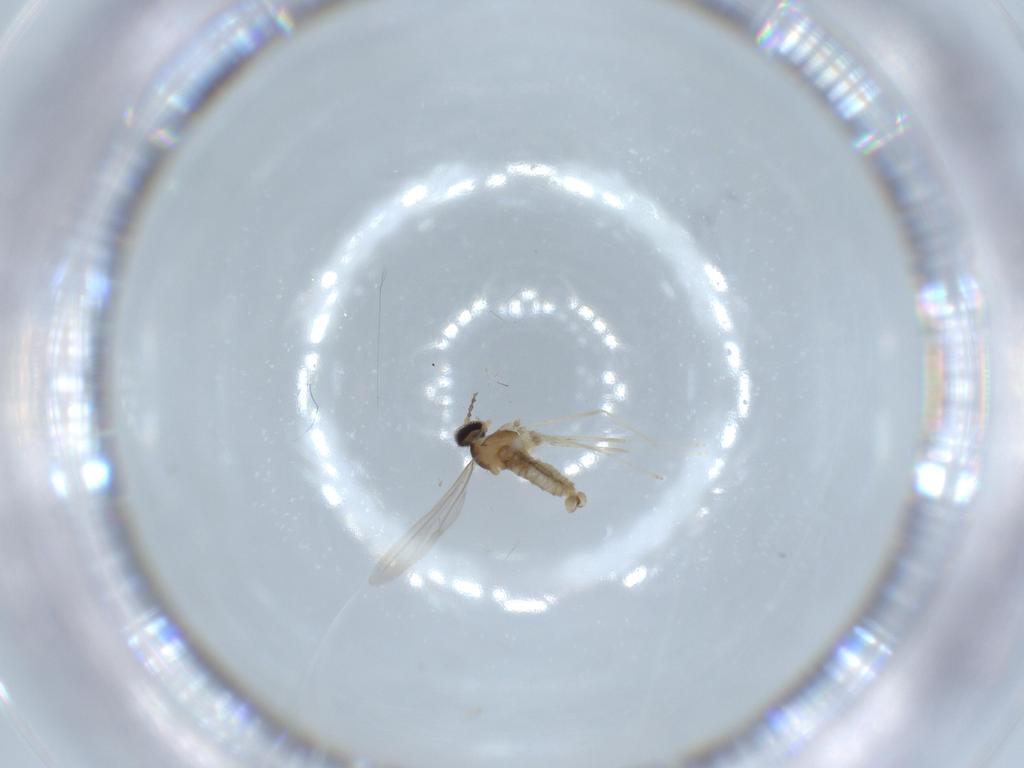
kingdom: Animalia
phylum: Arthropoda
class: Insecta
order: Diptera
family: Cecidomyiidae
